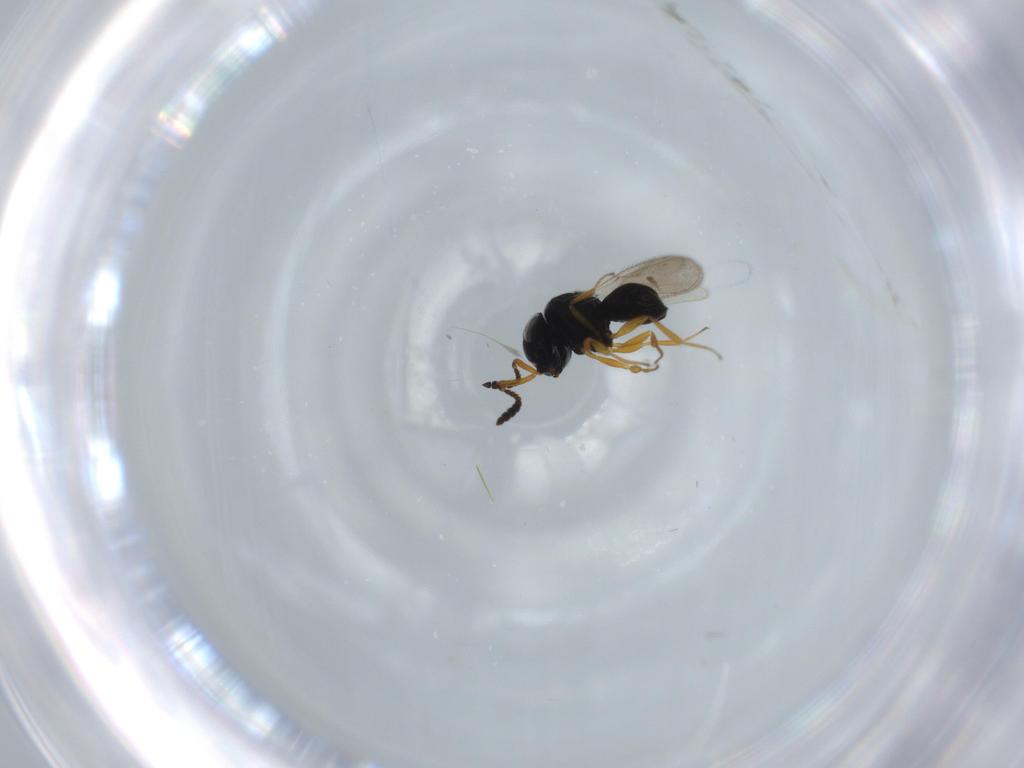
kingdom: Animalia
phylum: Arthropoda
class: Insecta
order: Hymenoptera
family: Scelionidae
